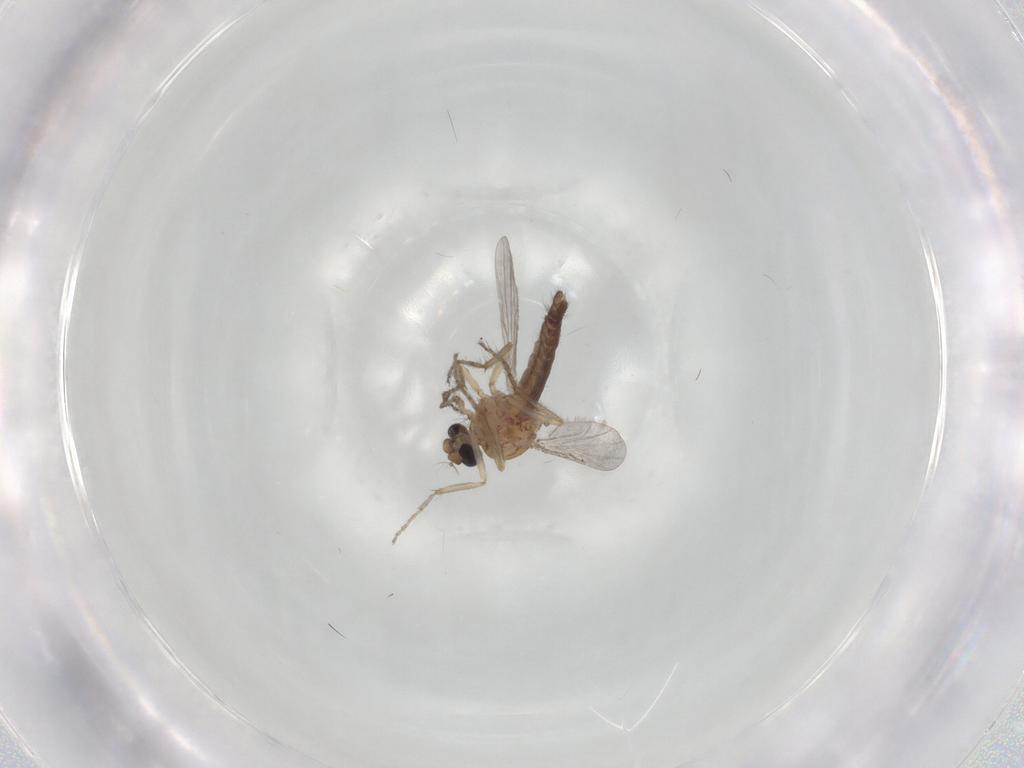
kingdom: Animalia
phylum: Arthropoda
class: Insecta
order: Diptera
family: Ceratopogonidae
